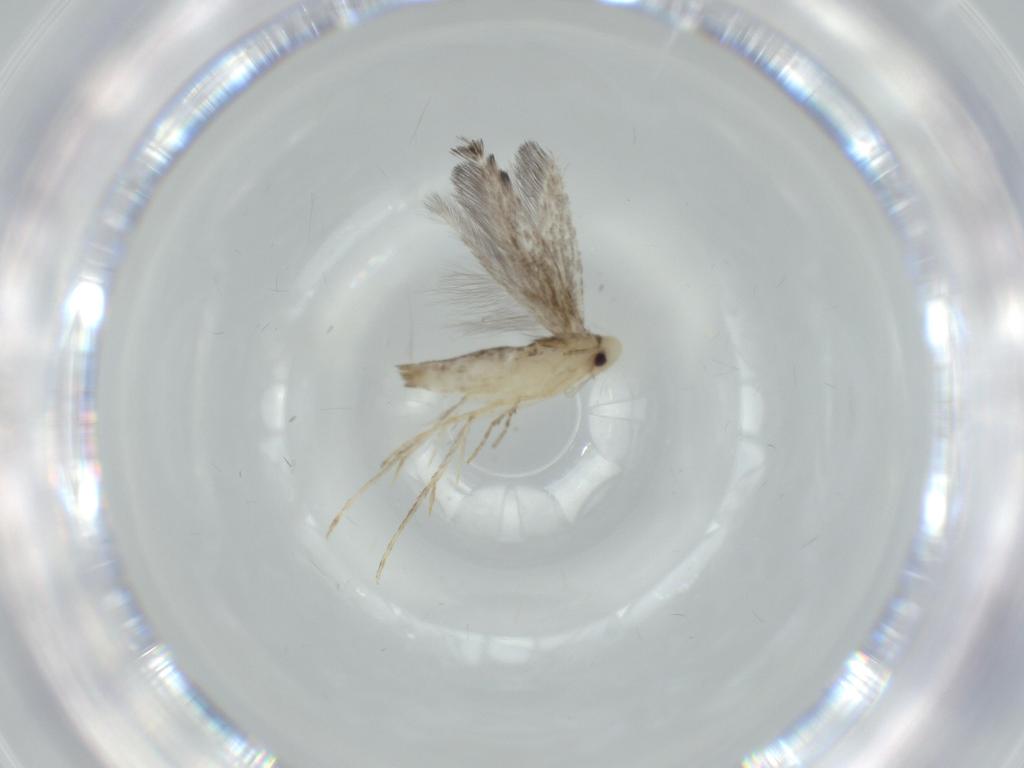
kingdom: Animalia
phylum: Arthropoda
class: Insecta
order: Lepidoptera
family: Gracillariidae
